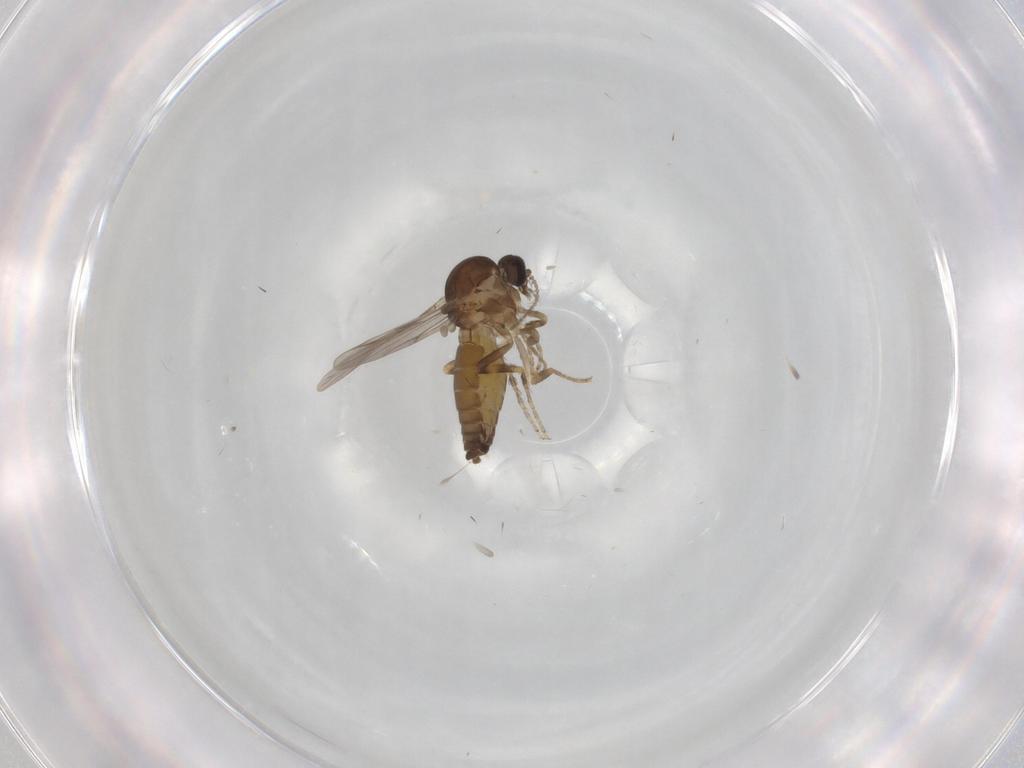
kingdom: Animalia
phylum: Arthropoda
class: Insecta
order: Diptera
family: Ceratopogonidae
